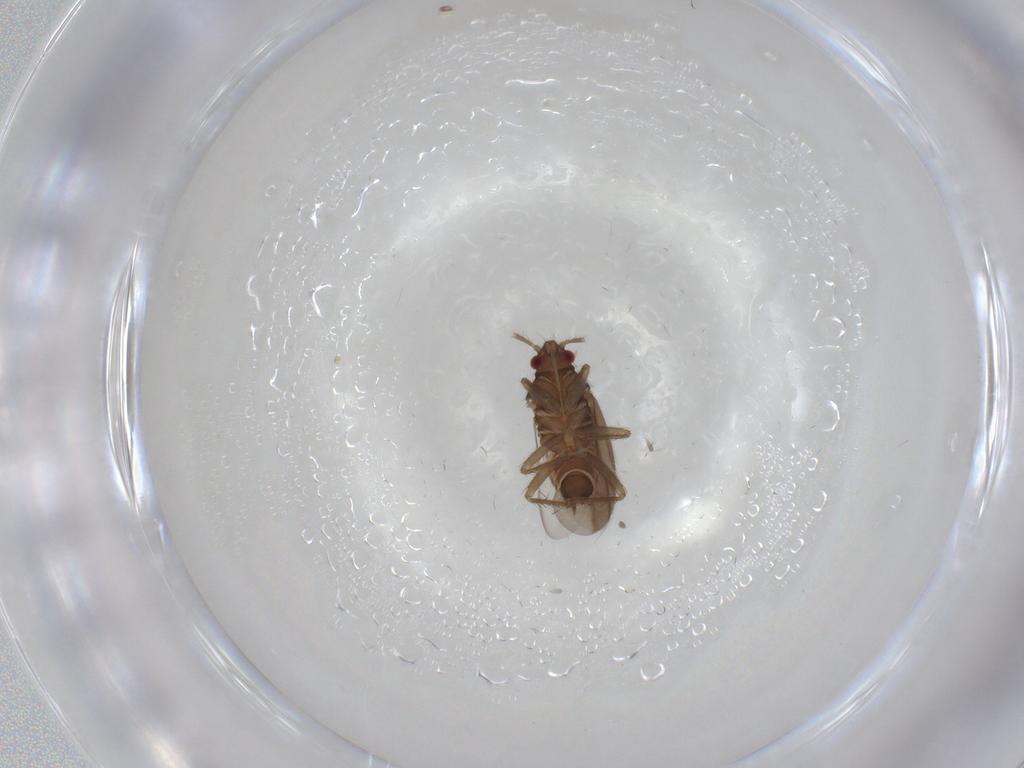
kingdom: Animalia
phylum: Arthropoda
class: Insecta
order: Hemiptera
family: Ceratocombidae
